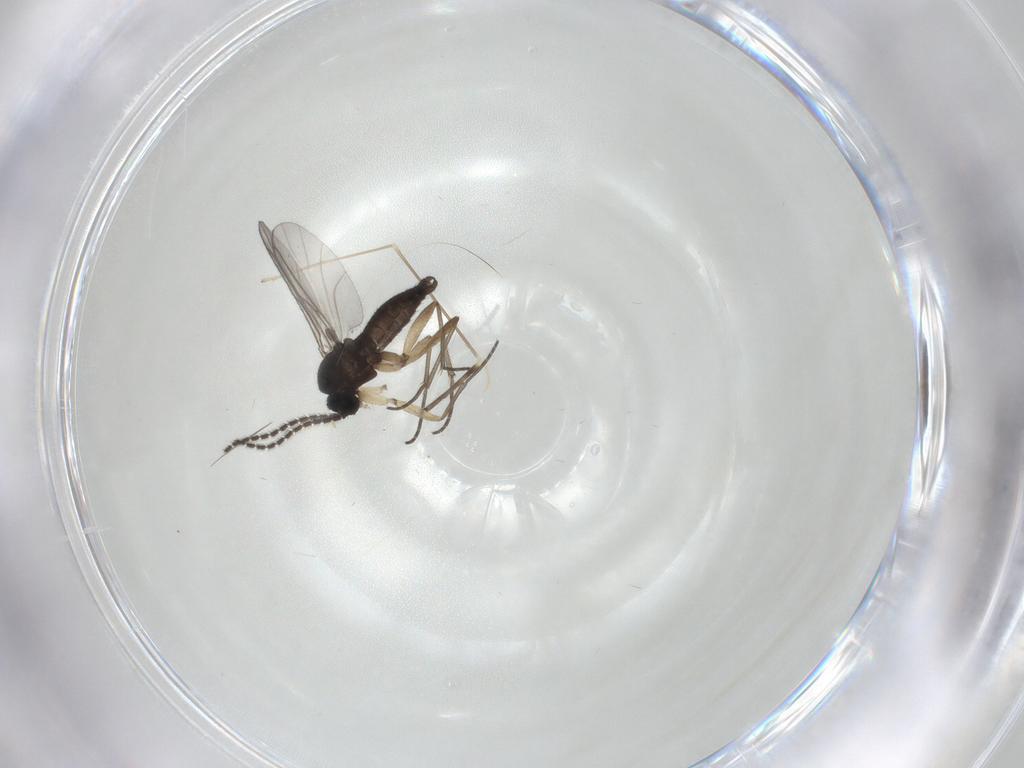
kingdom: Animalia
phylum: Arthropoda
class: Insecta
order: Diptera
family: Sciaridae
